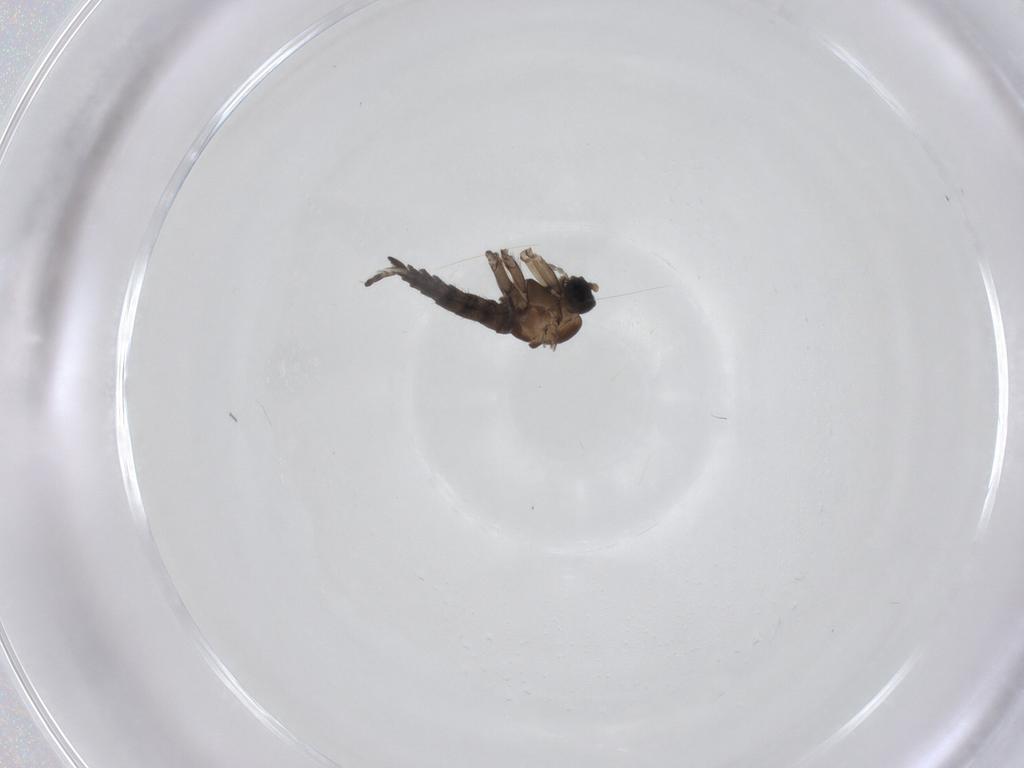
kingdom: Animalia
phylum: Arthropoda
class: Insecta
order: Diptera
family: Sciaridae
